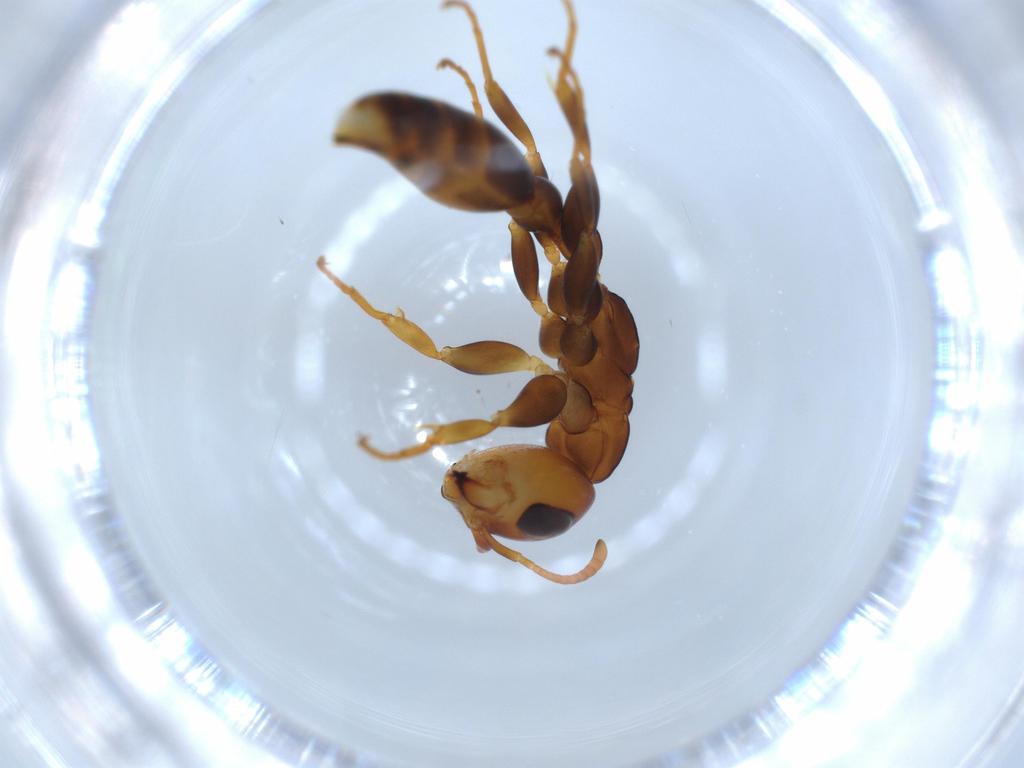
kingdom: Animalia
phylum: Arthropoda
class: Insecta
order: Hymenoptera
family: Formicidae
